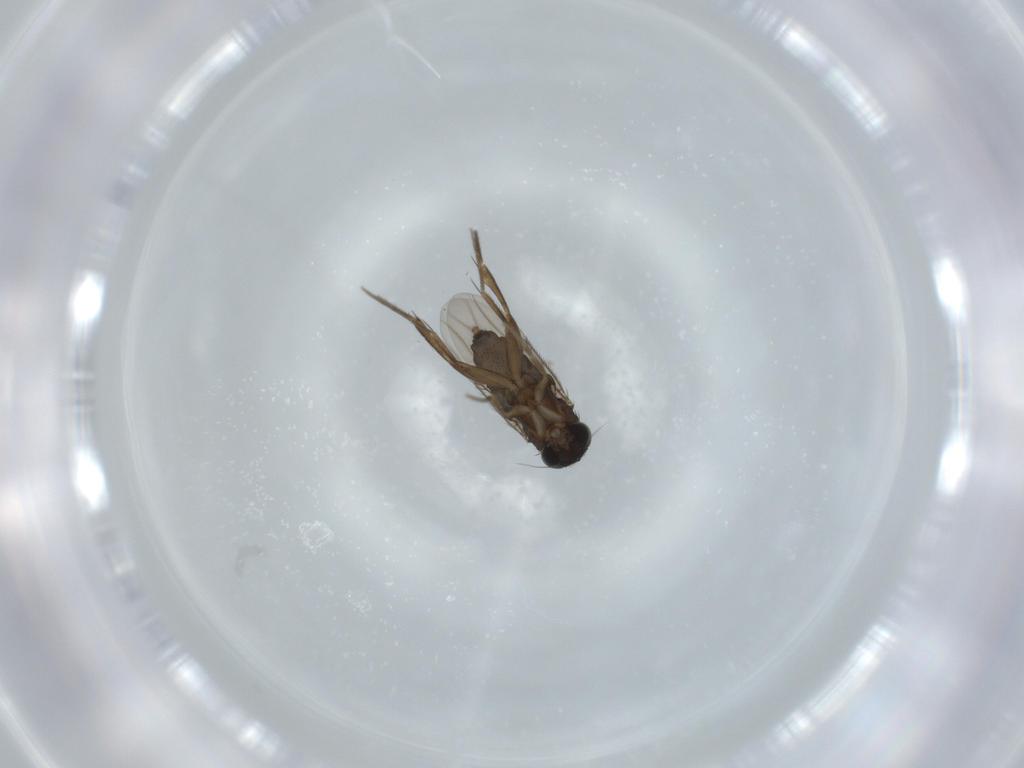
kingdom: Animalia
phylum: Arthropoda
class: Insecta
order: Diptera
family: Phoridae
